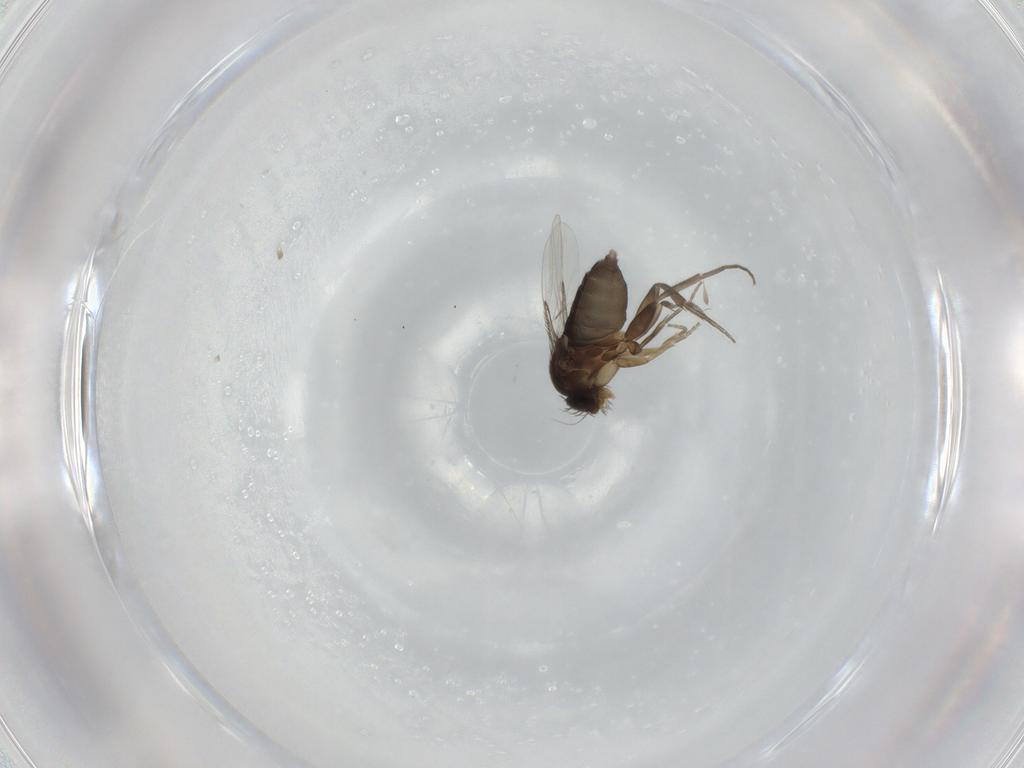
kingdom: Animalia
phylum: Arthropoda
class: Insecta
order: Diptera
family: Phoridae
